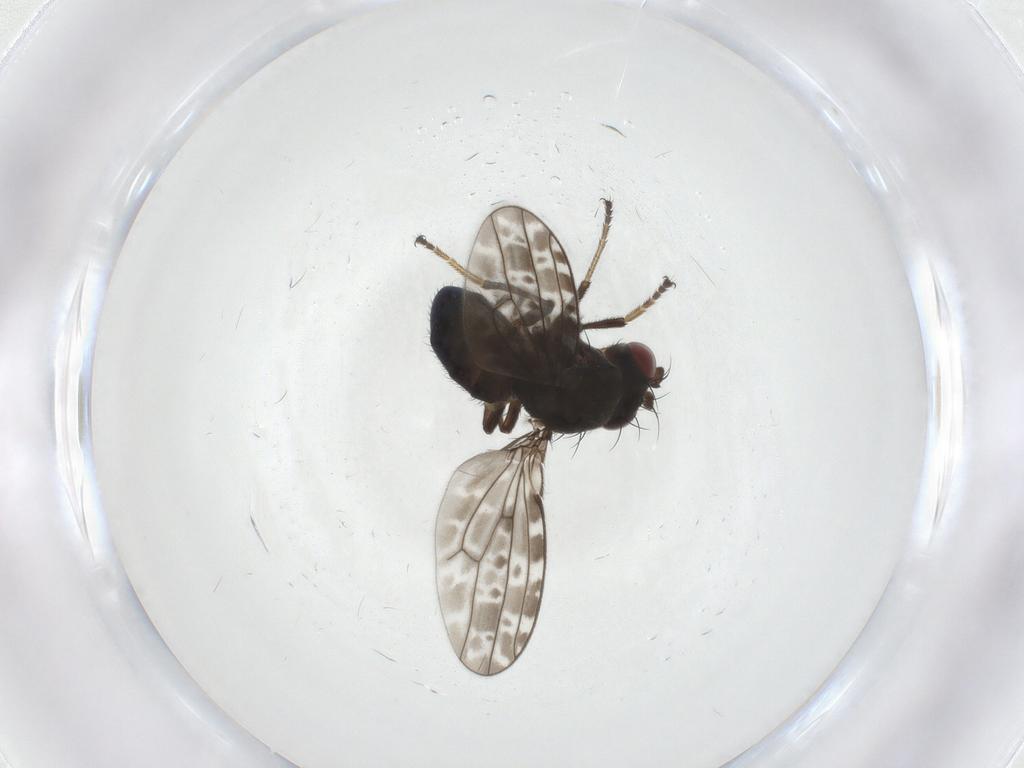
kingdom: Animalia
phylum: Arthropoda
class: Insecta
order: Diptera
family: Ephydridae
